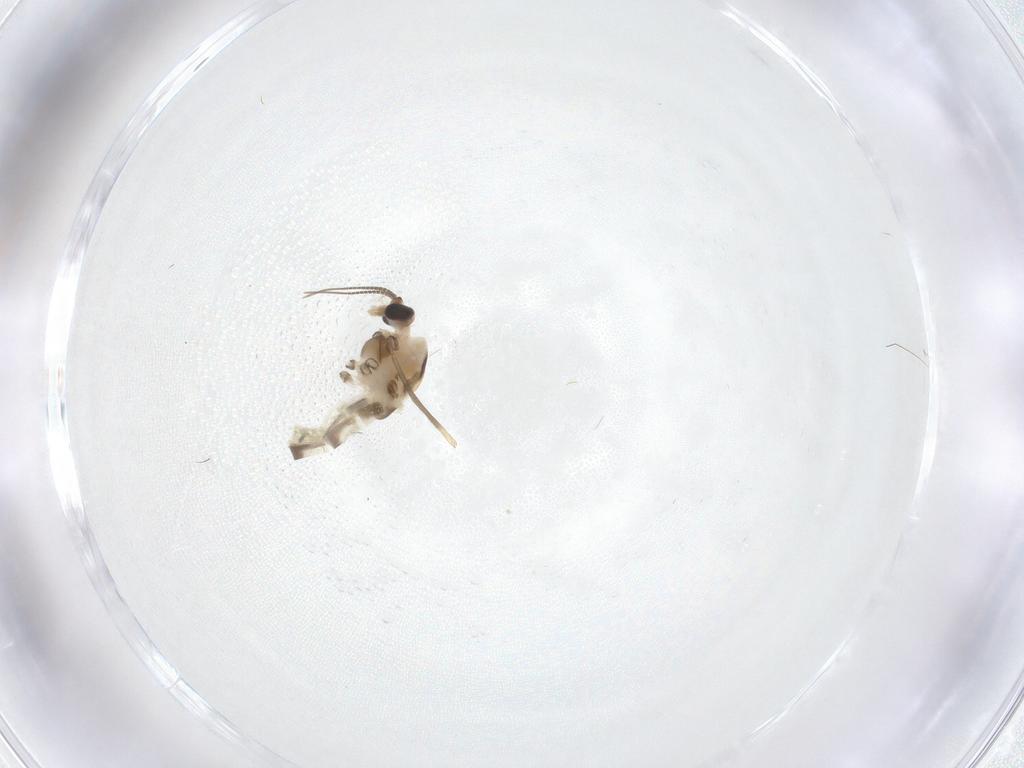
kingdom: Animalia
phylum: Arthropoda
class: Insecta
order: Diptera
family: Chironomidae
